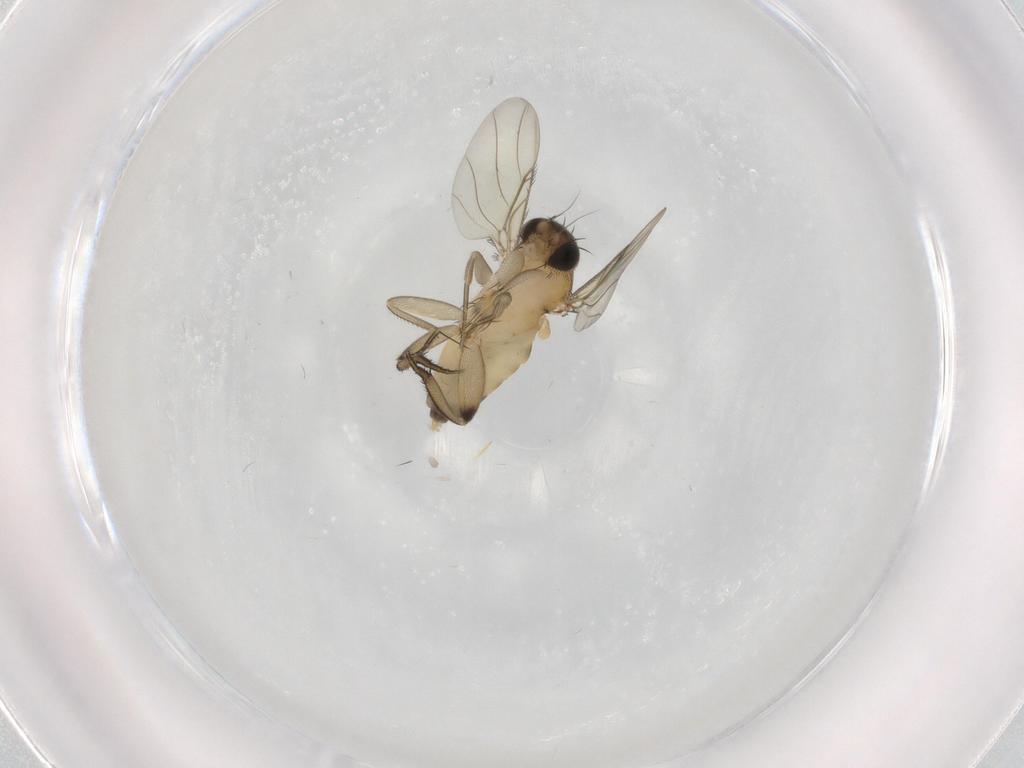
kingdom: Animalia
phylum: Arthropoda
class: Insecta
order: Diptera
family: Phoridae
